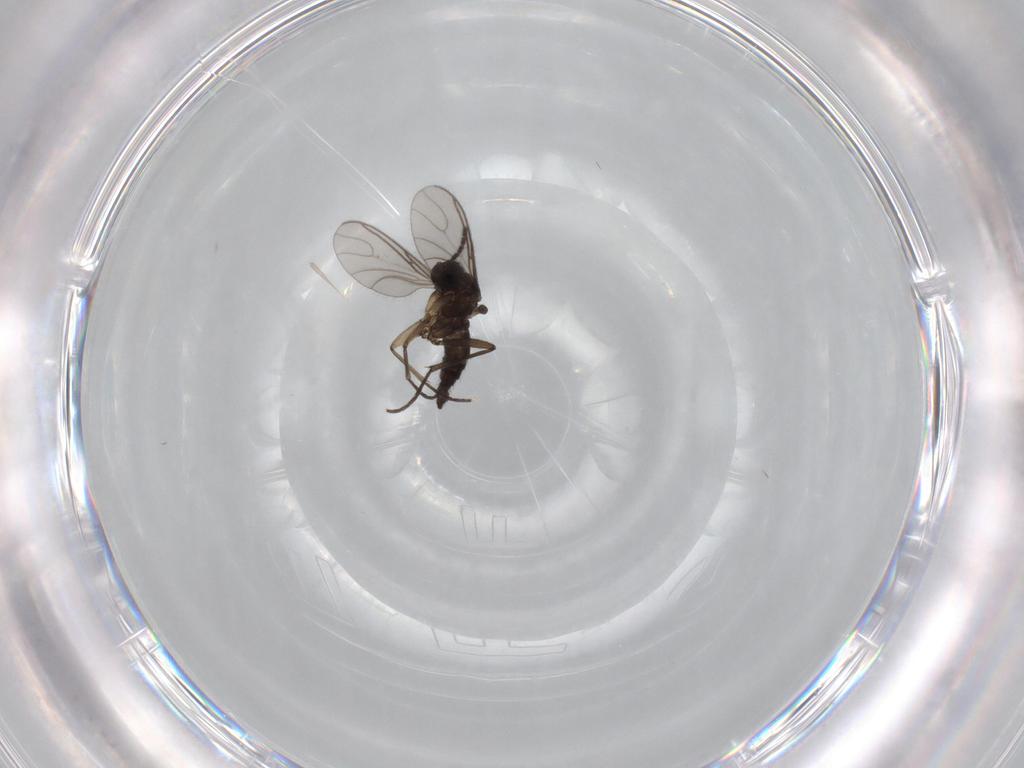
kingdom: Animalia
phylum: Arthropoda
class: Insecta
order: Diptera
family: Sciaridae
